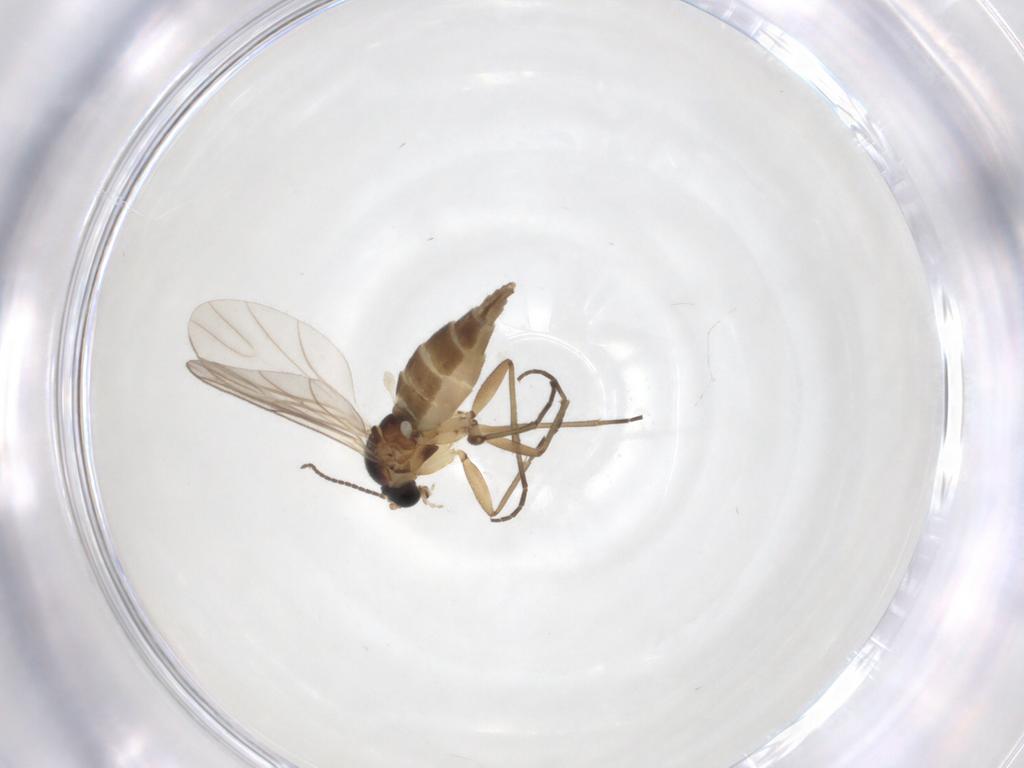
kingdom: Animalia
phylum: Arthropoda
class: Insecta
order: Diptera
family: Sciaridae
